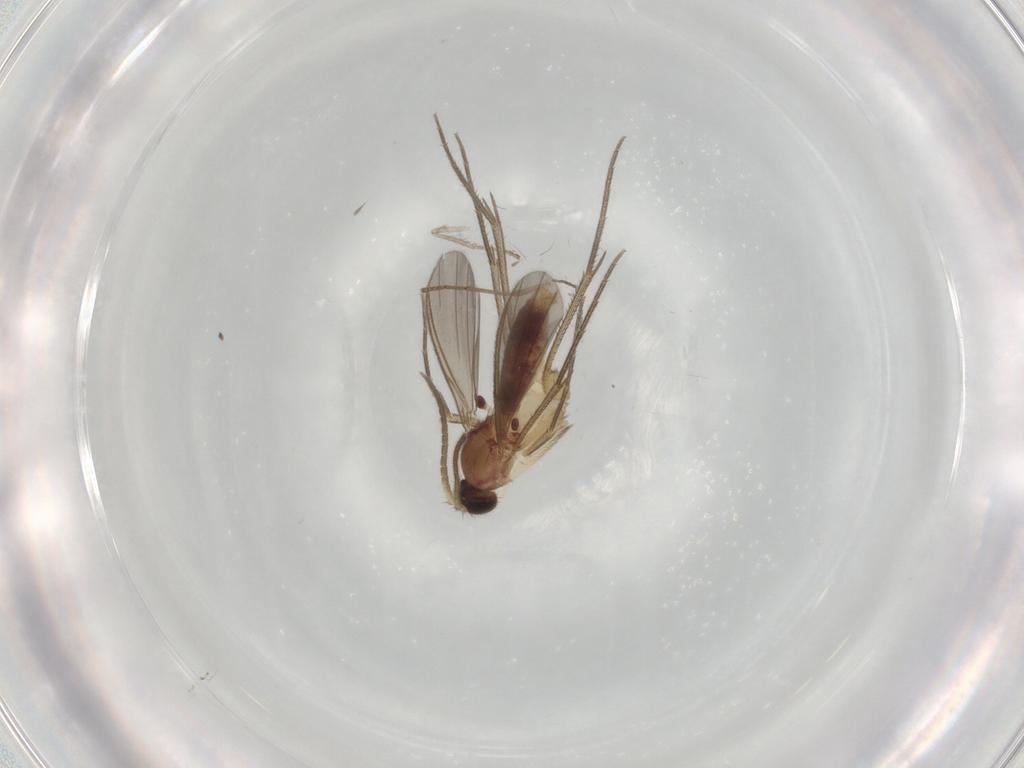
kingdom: Animalia
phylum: Arthropoda
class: Insecta
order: Diptera
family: Mycetophilidae
